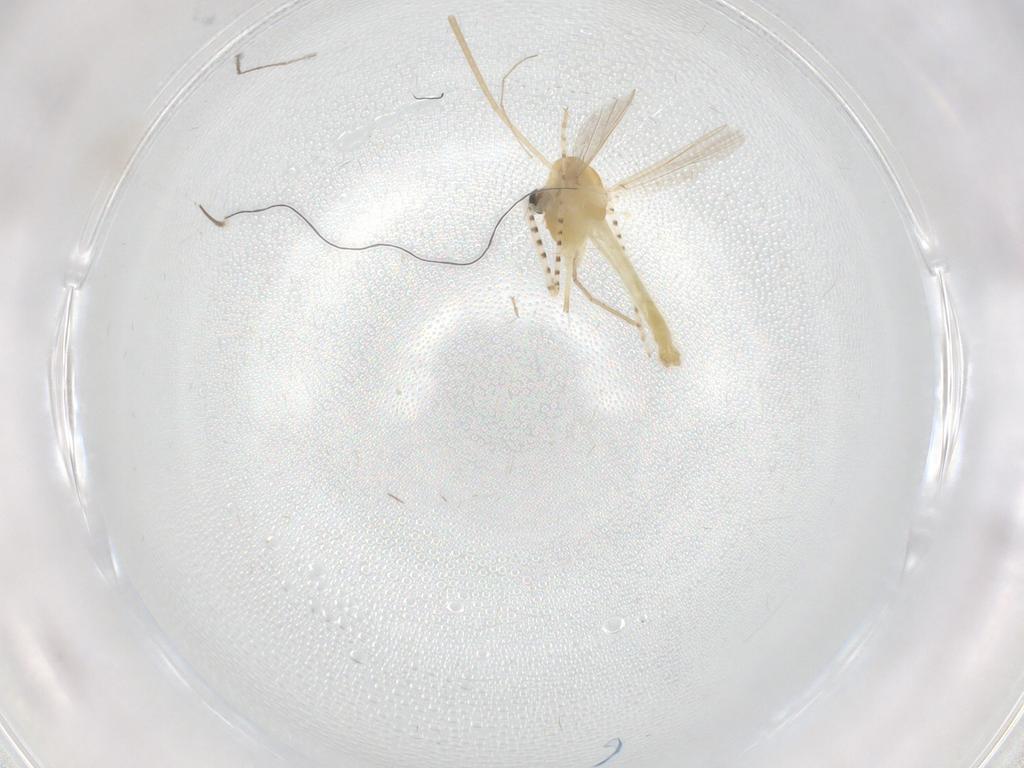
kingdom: Animalia
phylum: Arthropoda
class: Insecta
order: Diptera
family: Chironomidae
